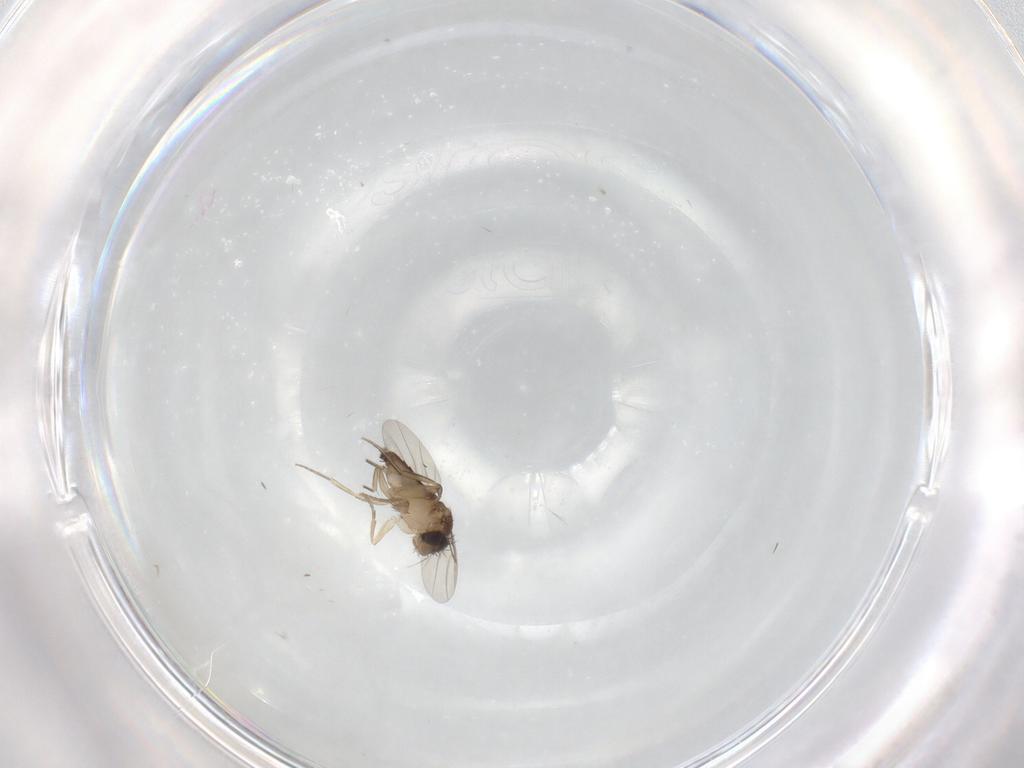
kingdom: Animalia
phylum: Arthropoda
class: Insecta
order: Diptera
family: Phoridae
